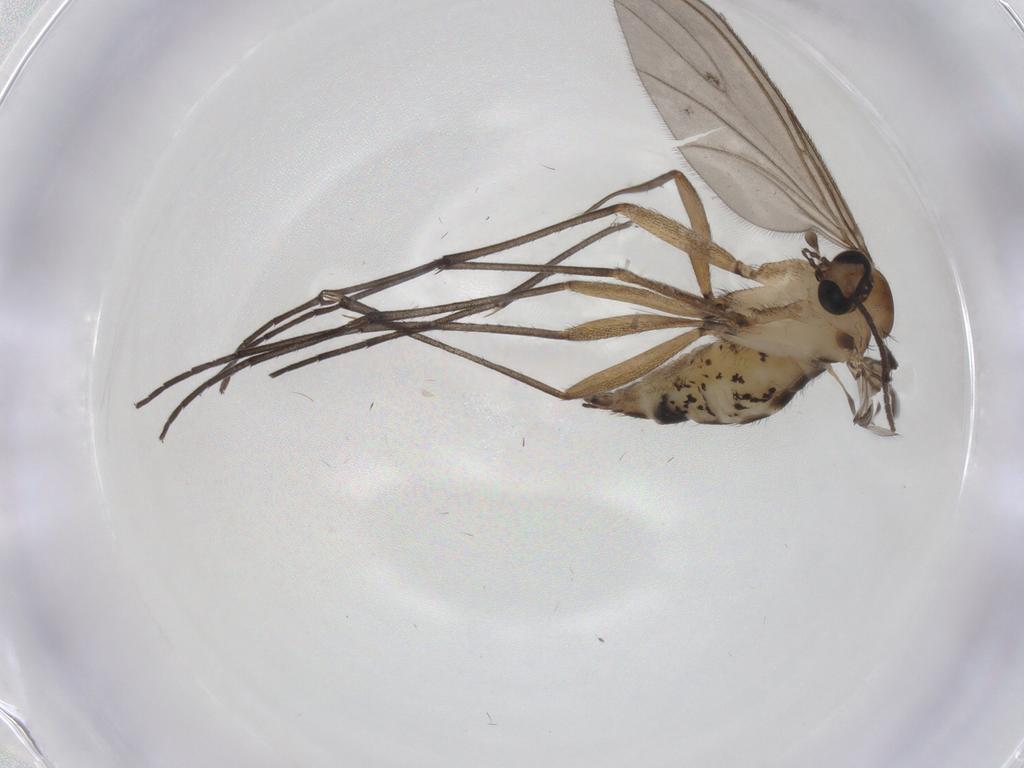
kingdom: Animalia
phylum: Arthropoda
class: Insecta
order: Diptera
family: Sciaridae
